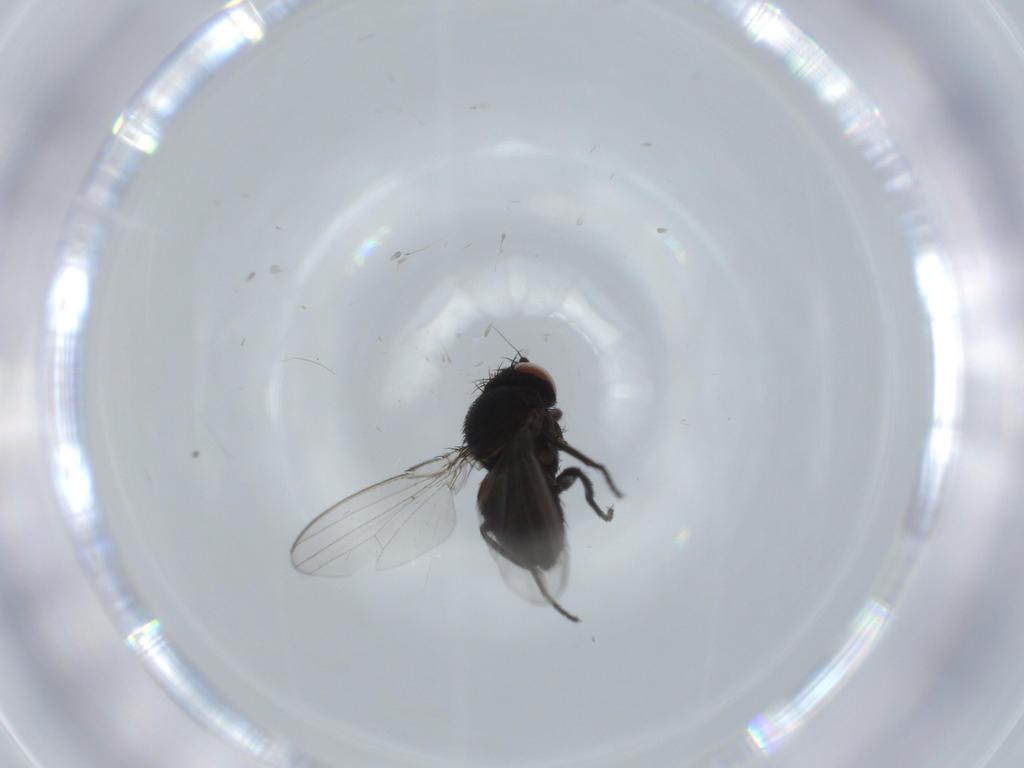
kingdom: Animalia
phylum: Arthropoda
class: Insecta
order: Diptera
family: Milichiidae
